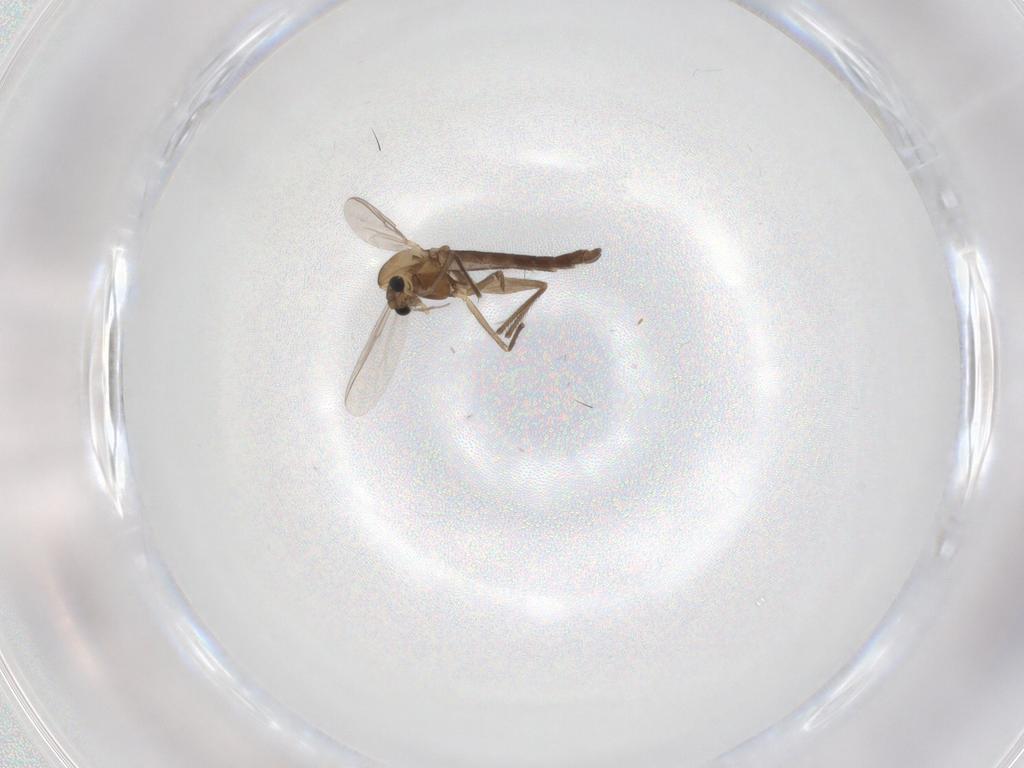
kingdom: Animalia
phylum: Arthropoda
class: Insecta
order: Diptera
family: Chironomidae
